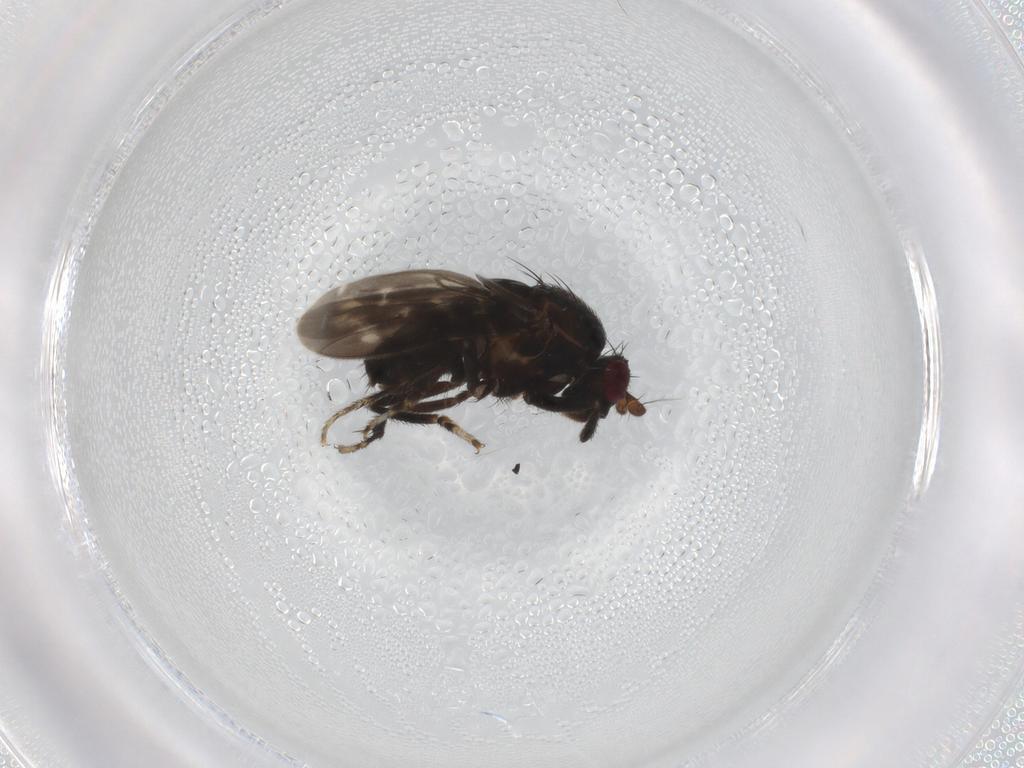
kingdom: Animalia
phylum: Arthropoda
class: Insecta
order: Diptera
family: Sphaeroceridae
